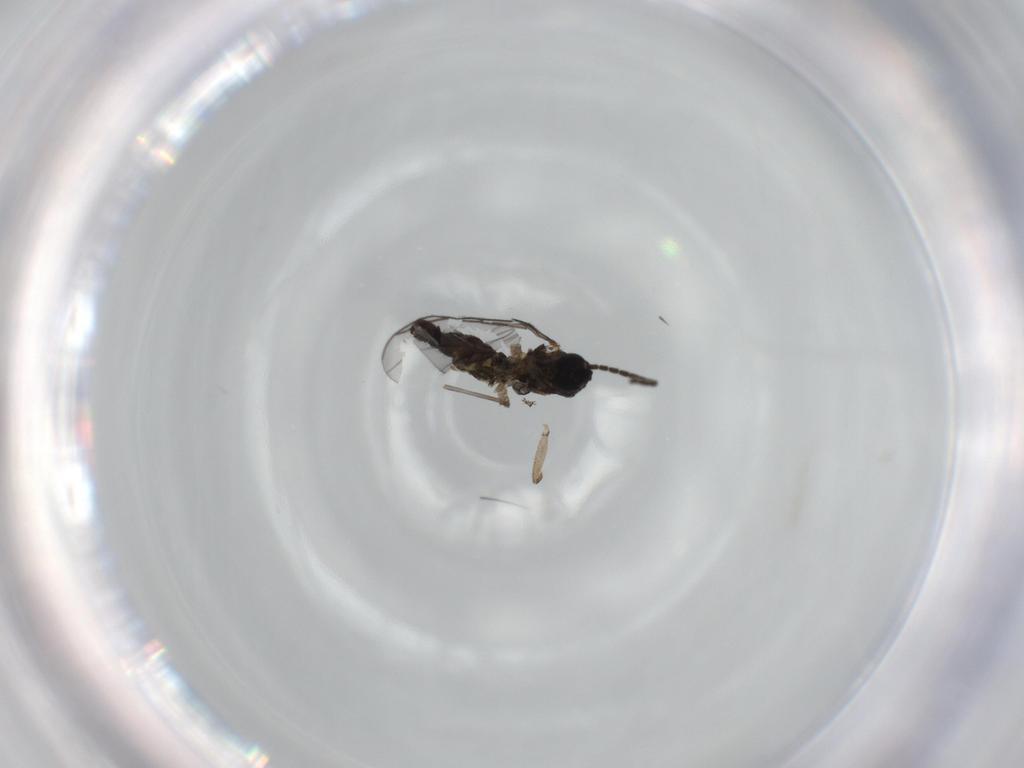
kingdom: Animalia
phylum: Arthropoda
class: Insecta
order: Diptera
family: Sciaridae
